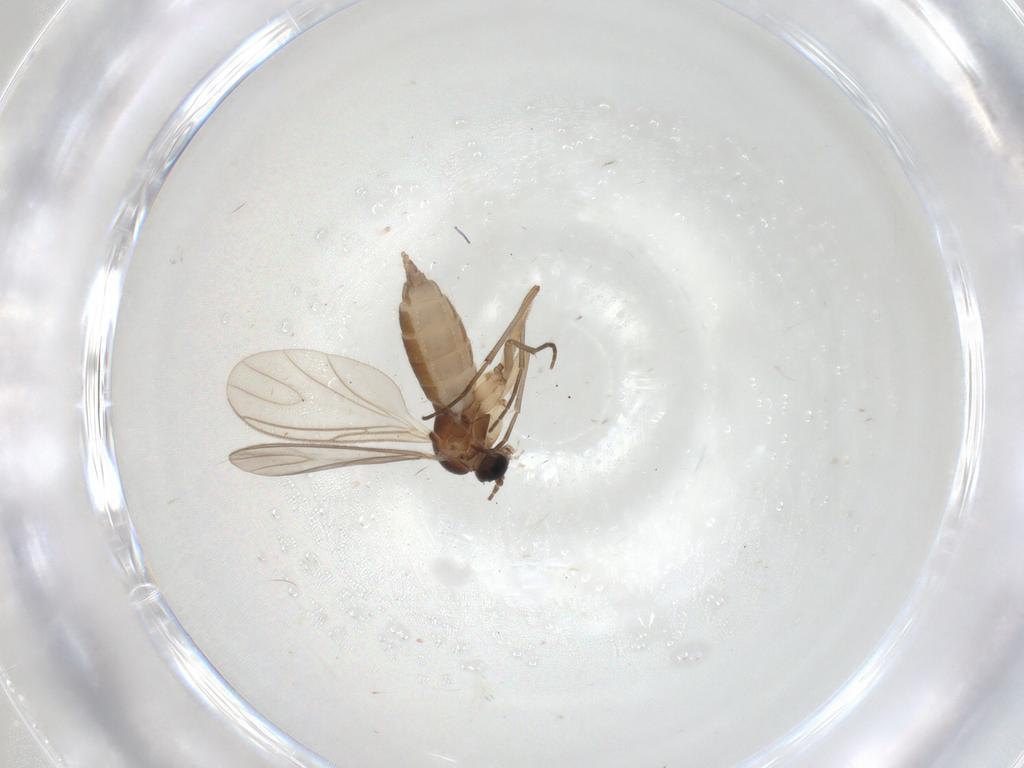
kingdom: Animalia
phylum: Arthropoda
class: Insecta
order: Diptera
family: Sciaridae
